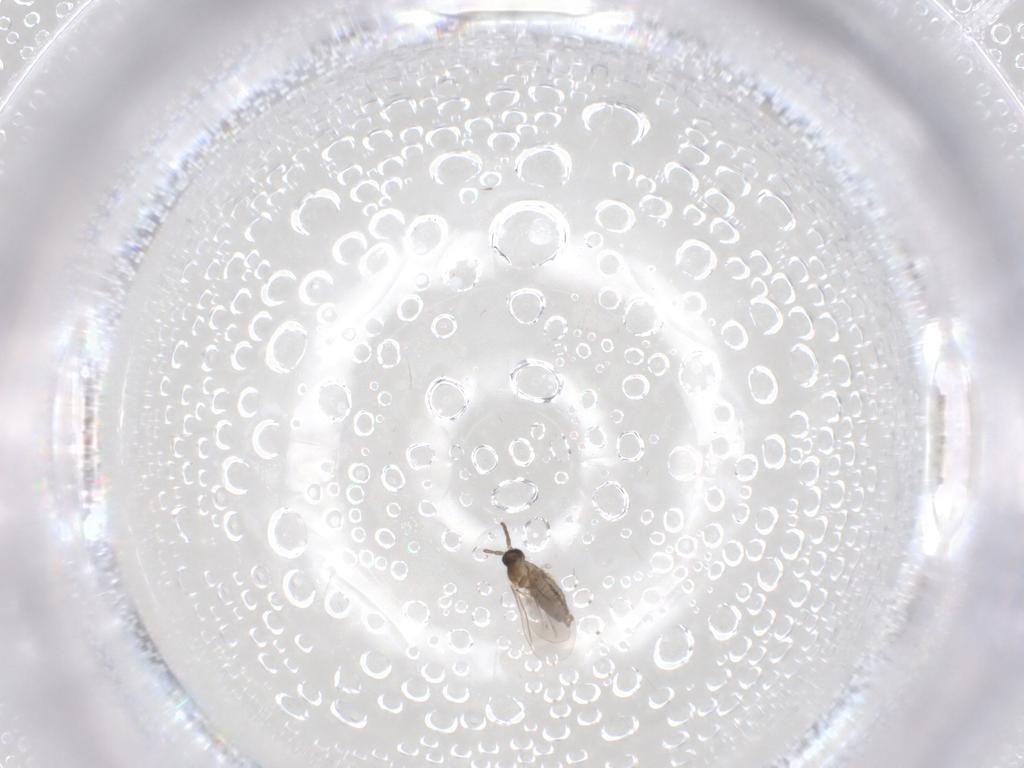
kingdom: Animalia
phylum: Arthropoda
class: Insecta
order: Diptera
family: Cecidomyiidae
